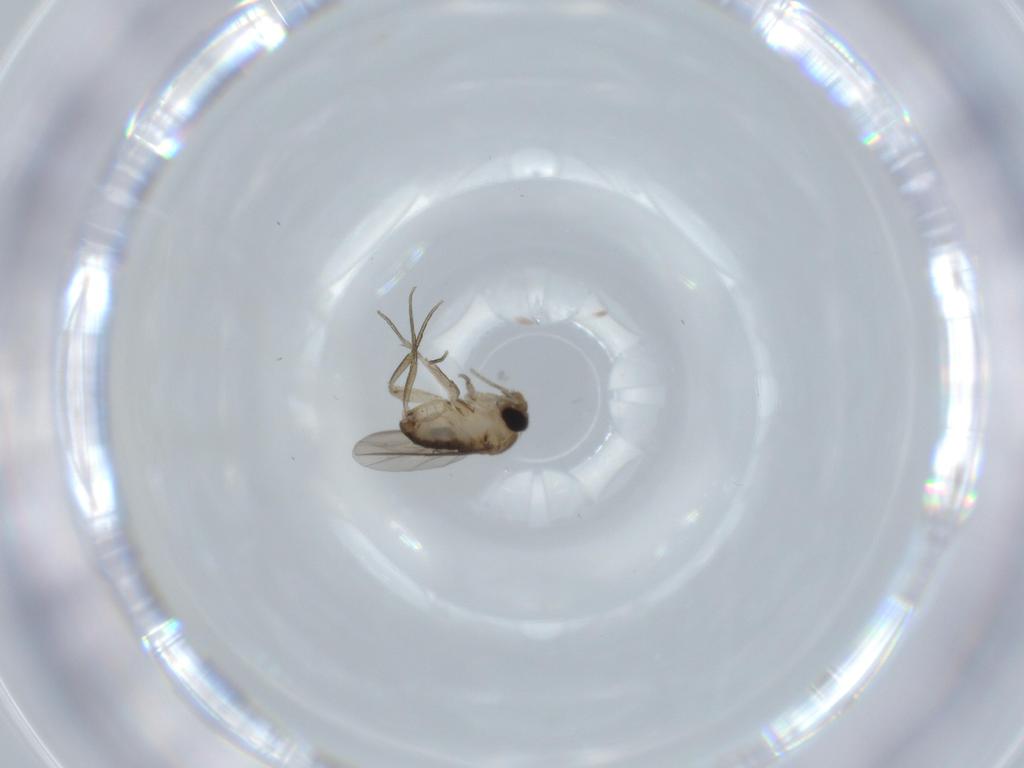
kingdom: Animalia
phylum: Arthropoda
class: Insecta
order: Diptera
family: Phoridae
